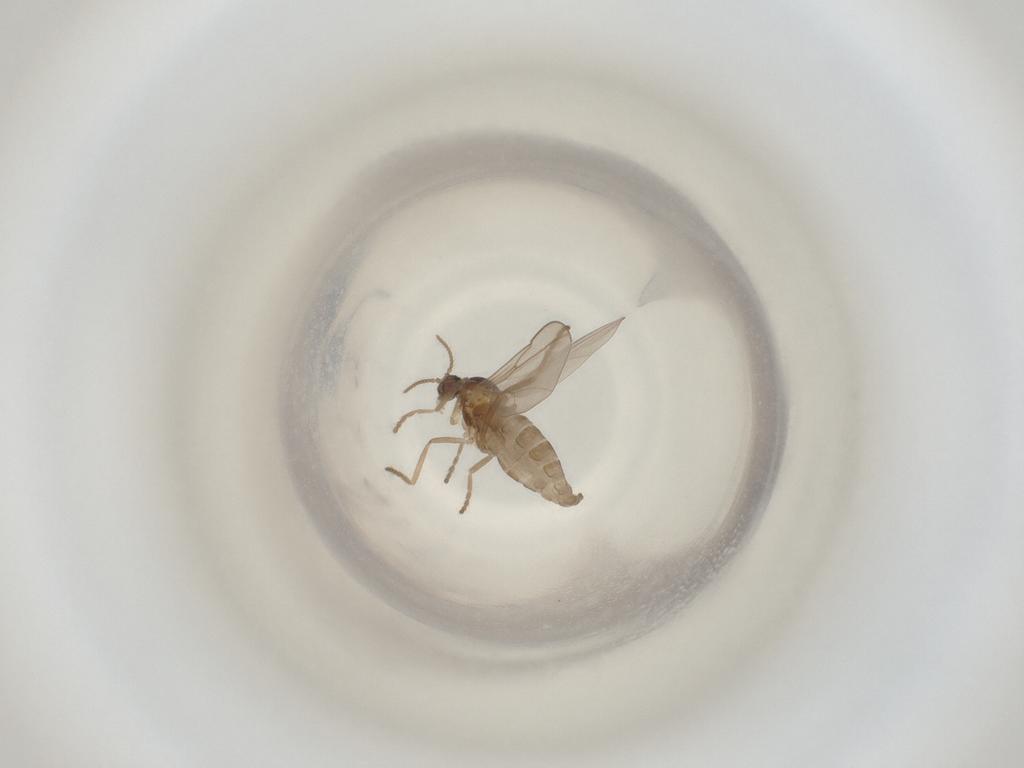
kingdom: Animalia
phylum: Arthropoda
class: Insecta
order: Diptera
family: Cecidomyiidae
